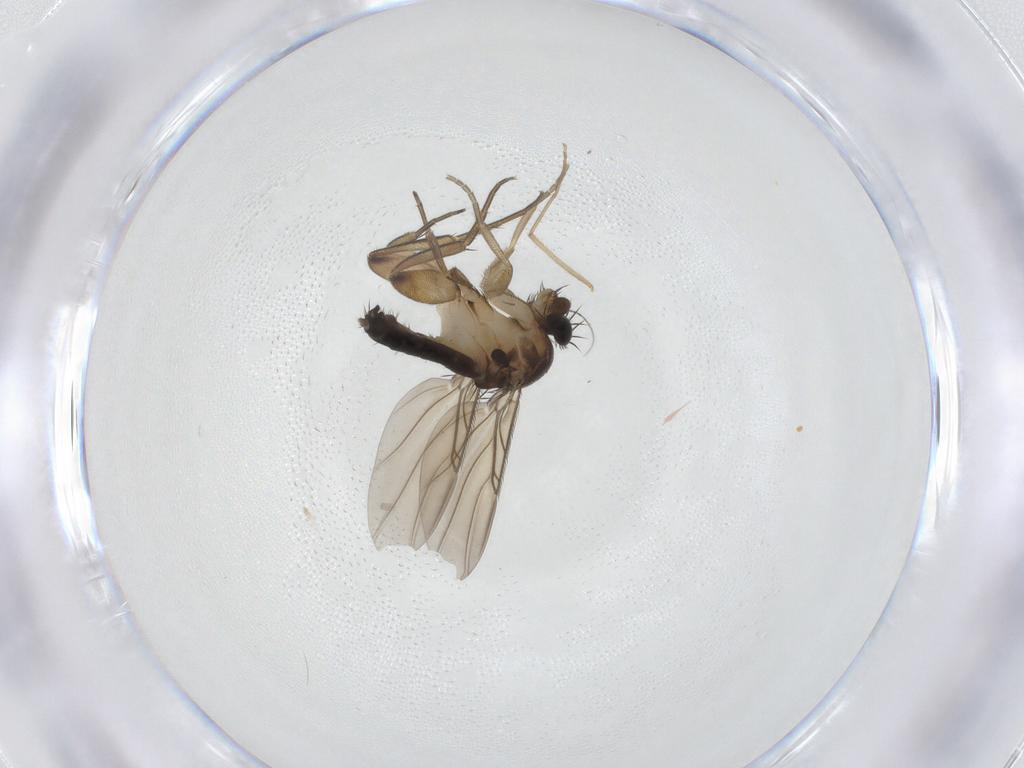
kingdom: Animalia
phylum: Arthropoda
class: Insecta
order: Diptera
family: Phoridae
